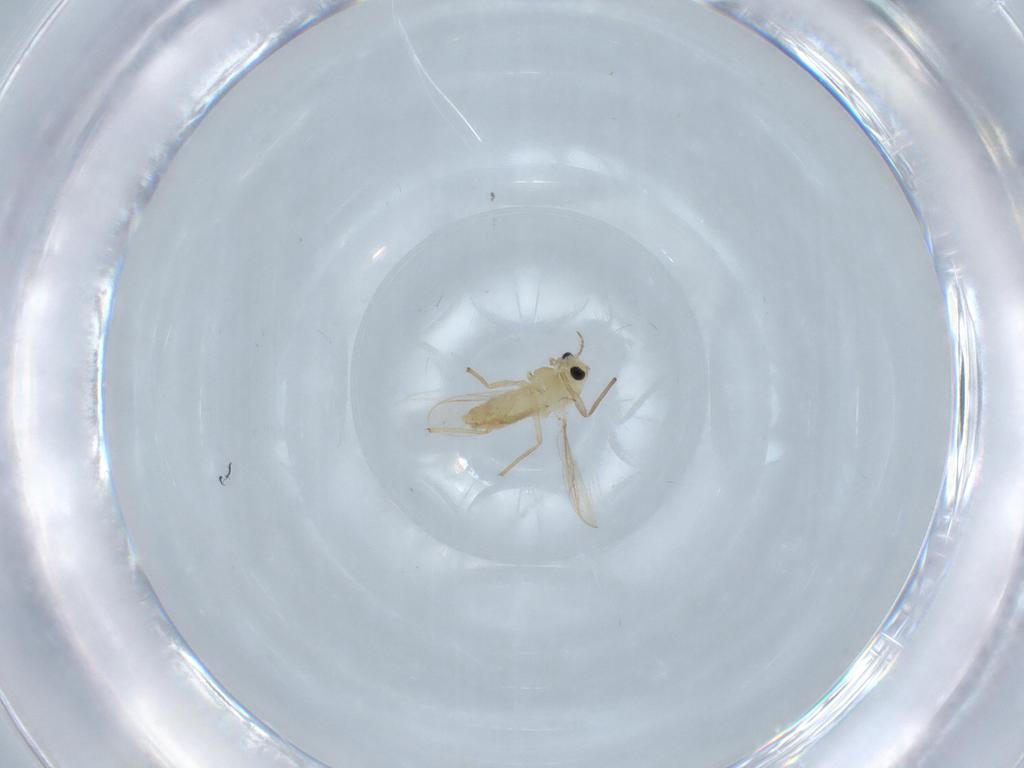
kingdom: Animalia
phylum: Arthropoda
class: Insecta
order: Diptera
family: Chironomidae
